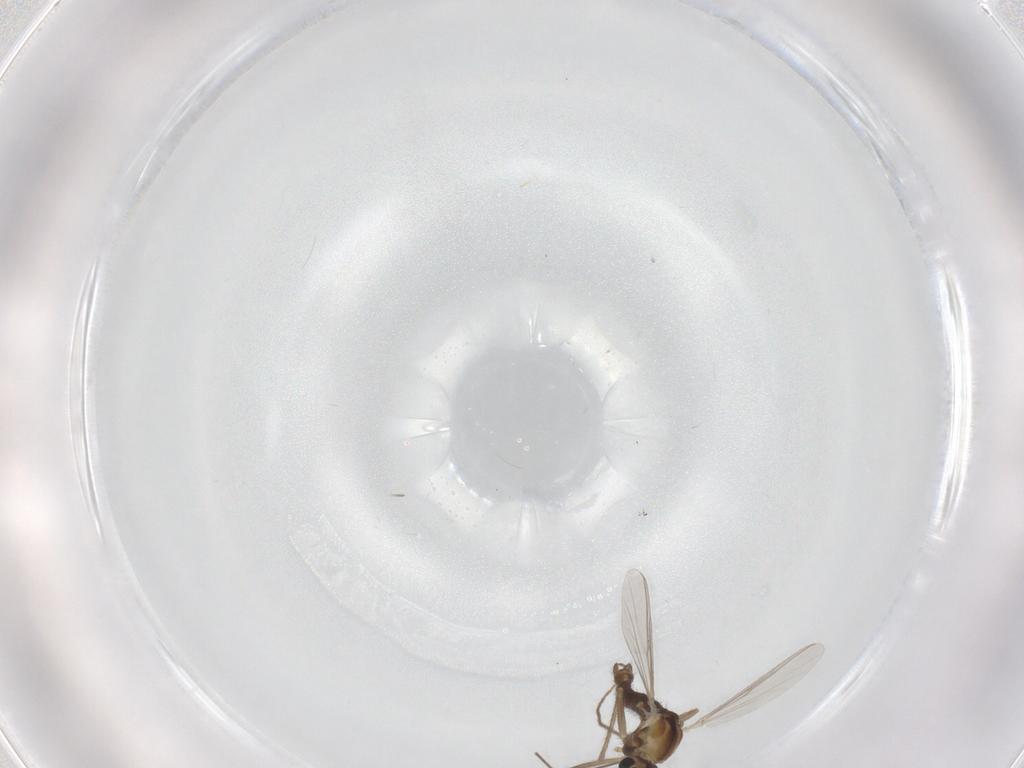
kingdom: Animalia
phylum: Arthropoda
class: Insecta
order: Diptera
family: Chironomidae
